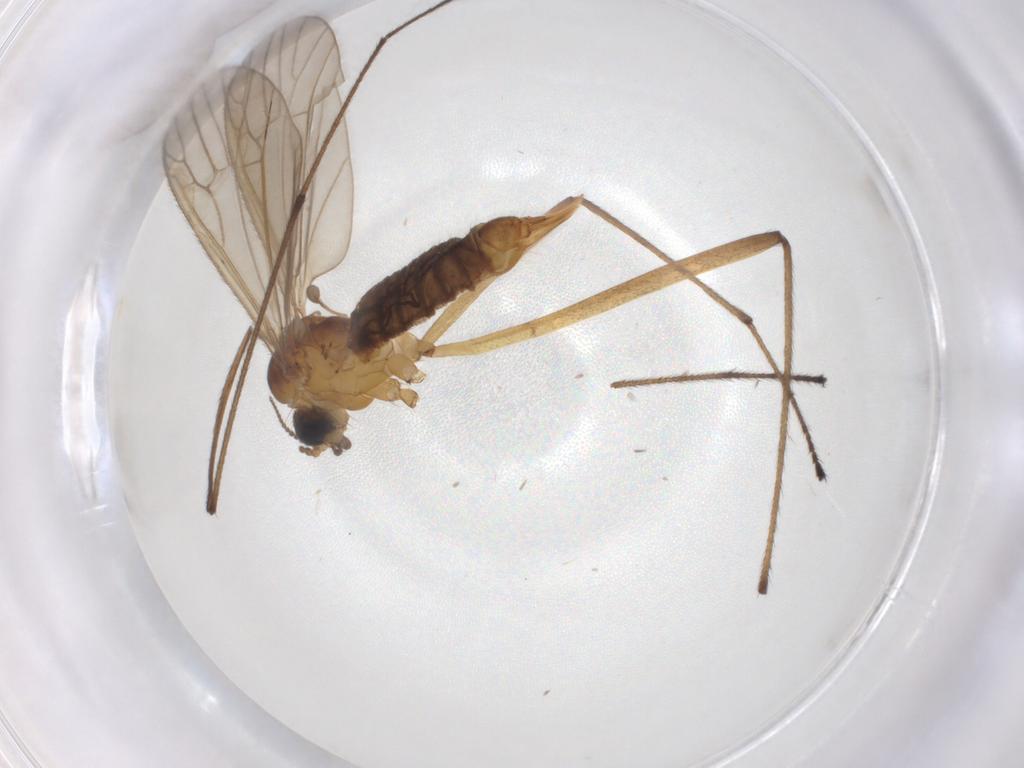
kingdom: Animalia
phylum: Arthropoda
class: Insecta
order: Diptera
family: Limoniidae
